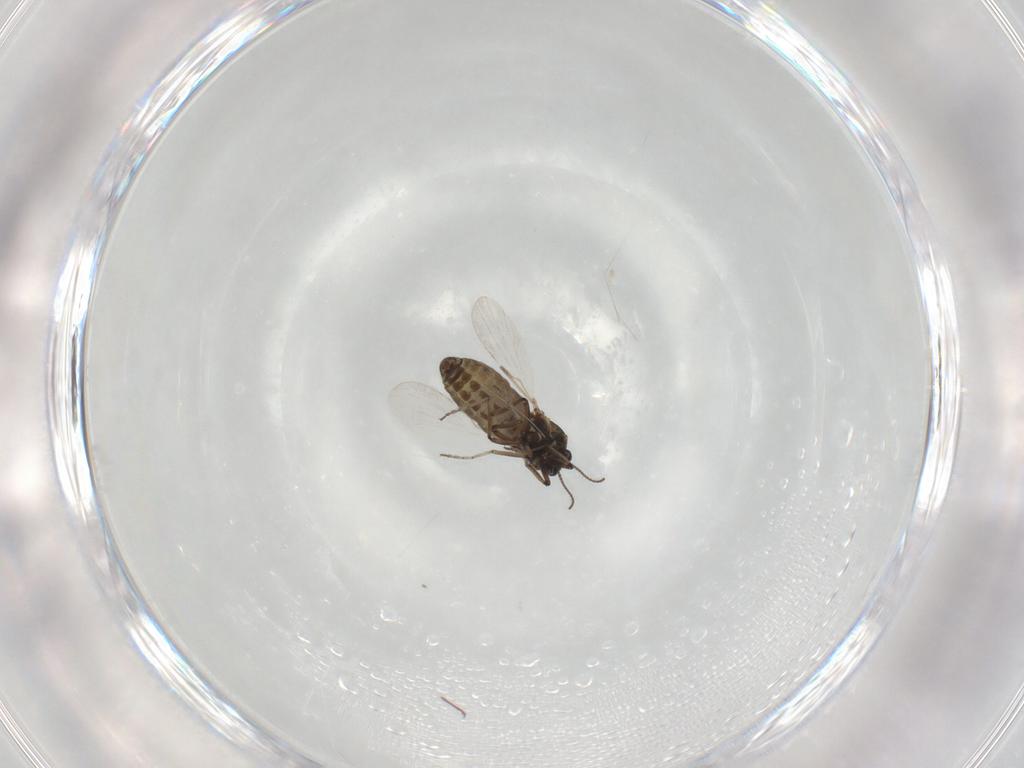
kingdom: Animalia
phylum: Arthropoda
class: Insecta
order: Diptera
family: Ceratopogonidae
